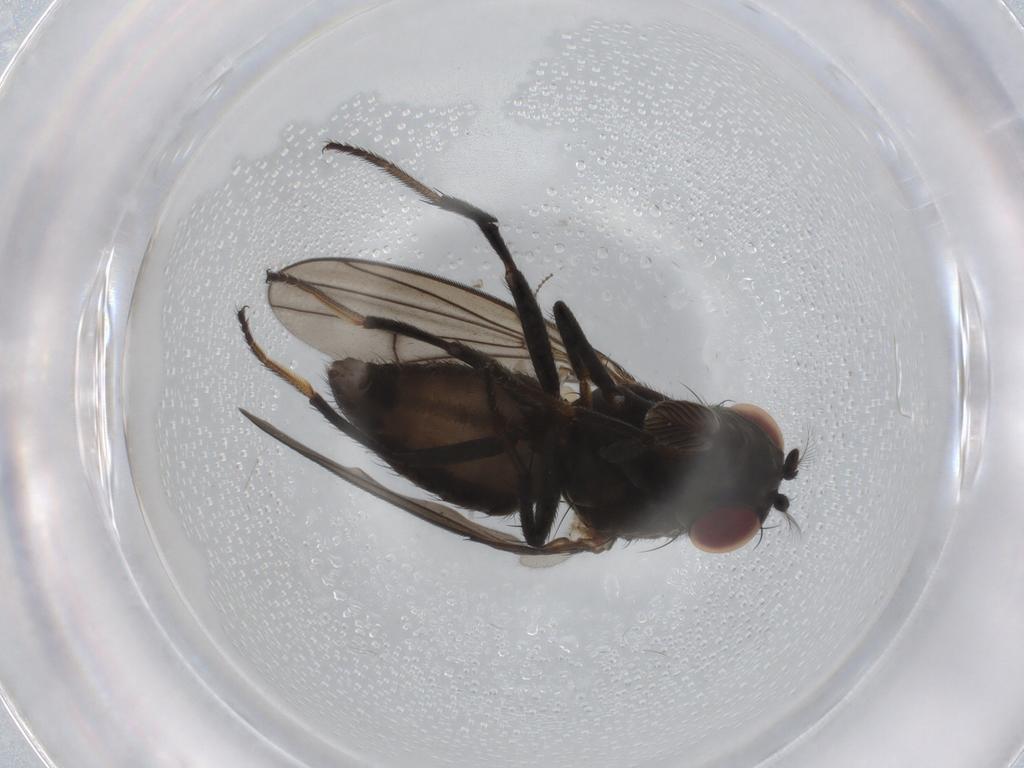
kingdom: Animalia
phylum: Arthropoda
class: Insecta
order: Diptera
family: Ephydridae
